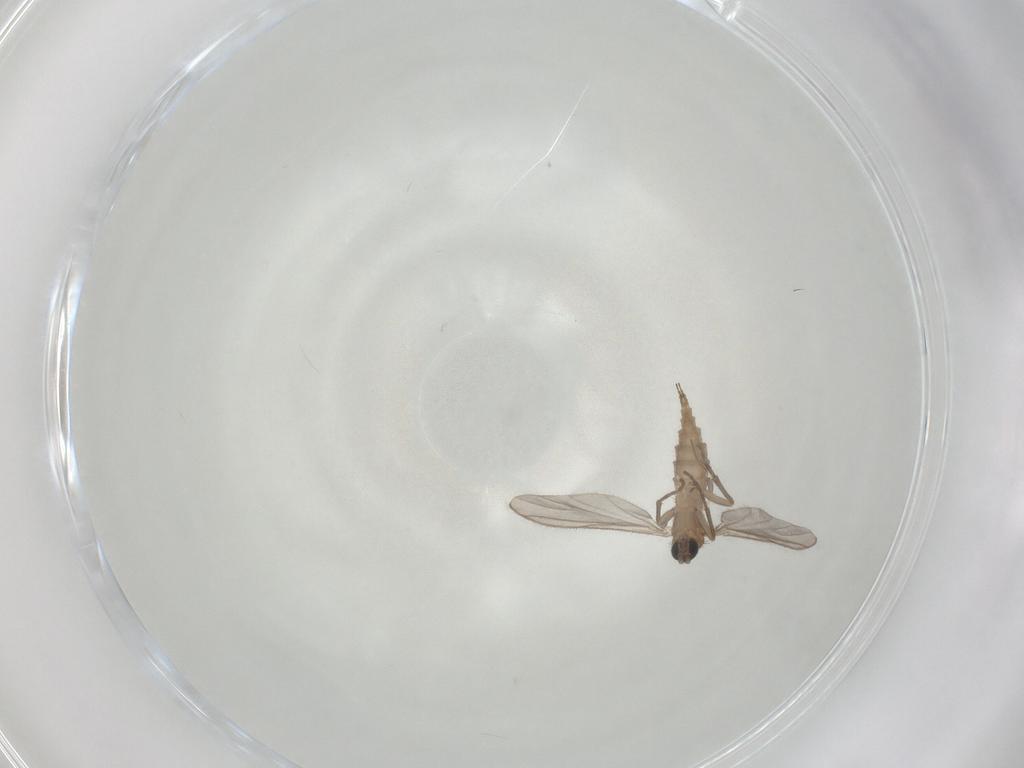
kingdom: Animalia
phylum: Arthropoda
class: Insecta
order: Diptera
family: Sciaridae
